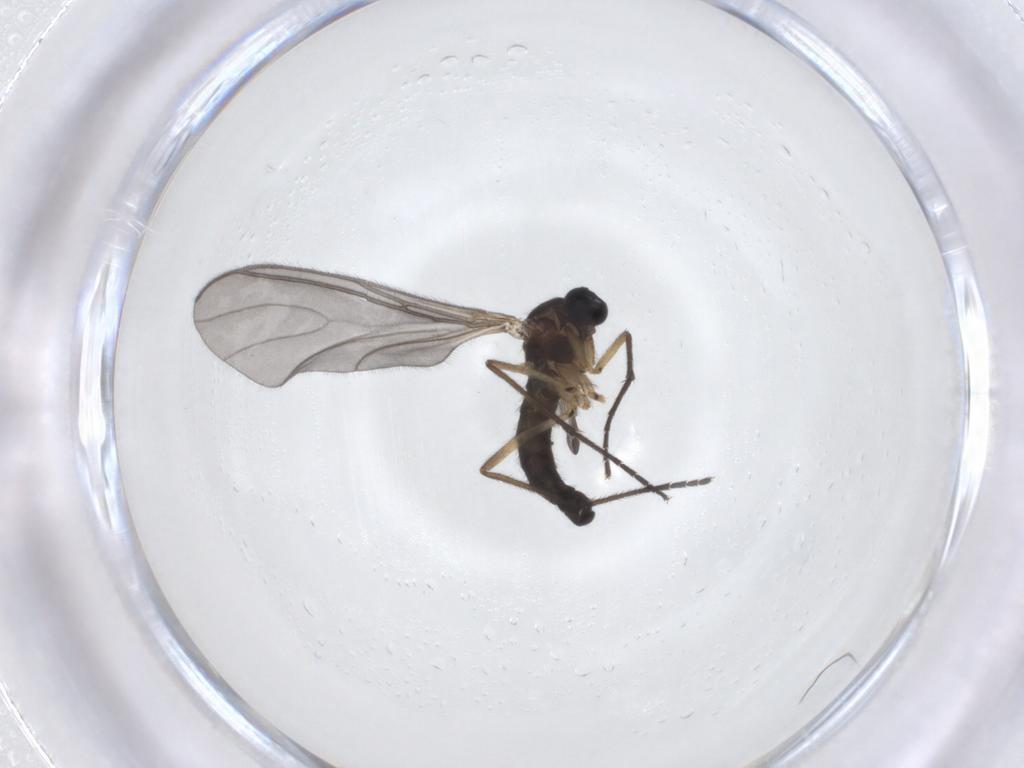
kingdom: Animalia
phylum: Arthropoda
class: Insecta
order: Diptera
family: Sciaridae
